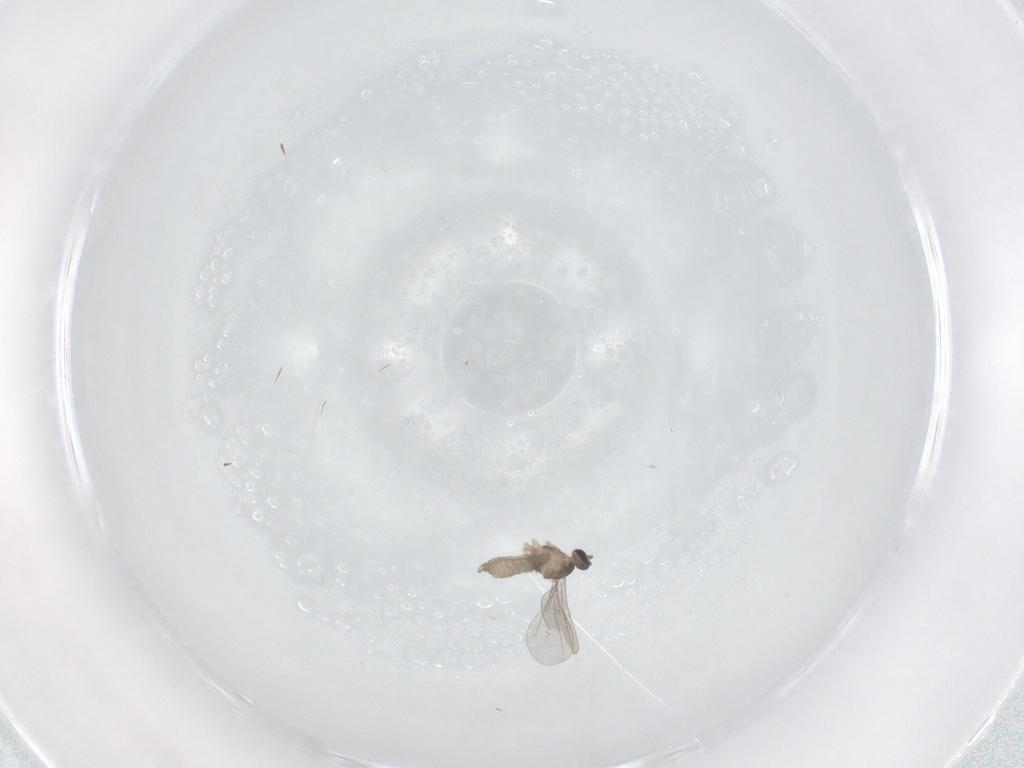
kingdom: Animalia
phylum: Arthropoda
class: Insecta
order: Diptera
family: Cecidomyiidae
